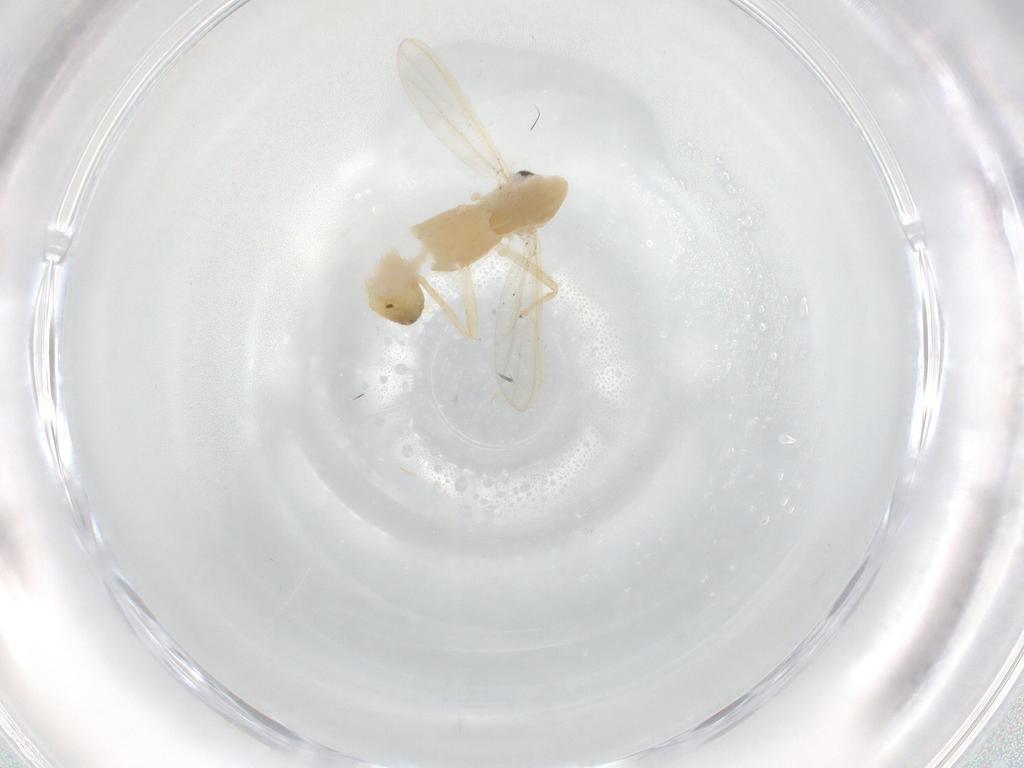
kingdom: Animalia
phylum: Arthropoda
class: Insecta
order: Diptera
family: Chironomidae
